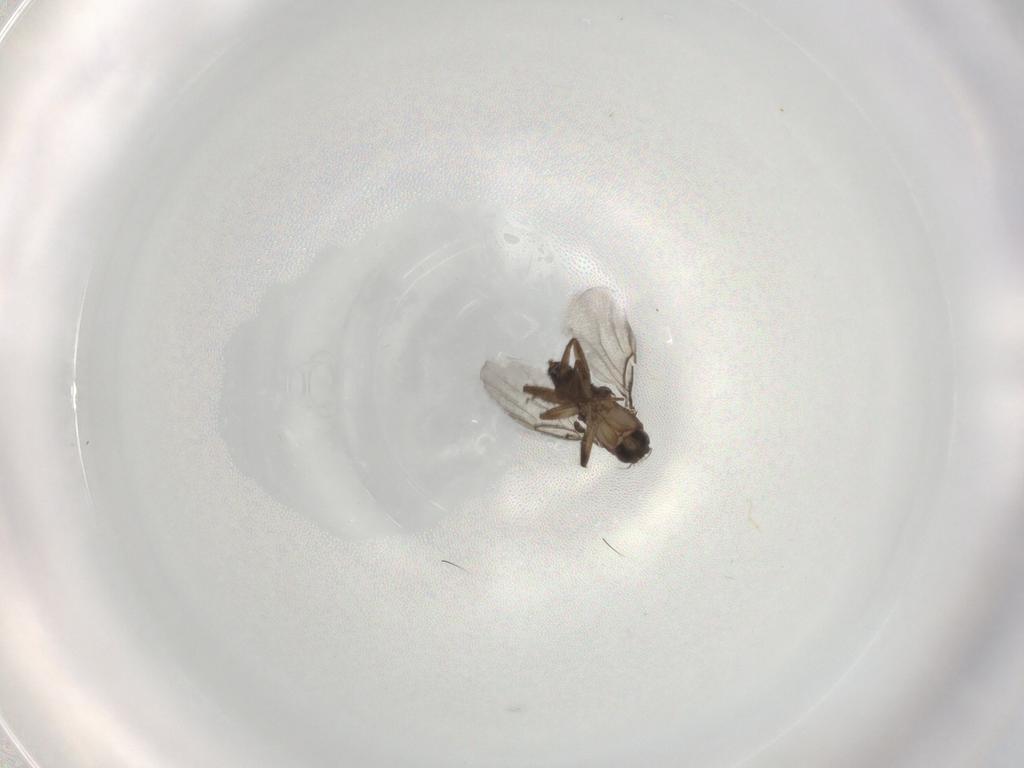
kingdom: Animalia
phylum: Arthropoda
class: Insecta
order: Diptera
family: Phoridae
